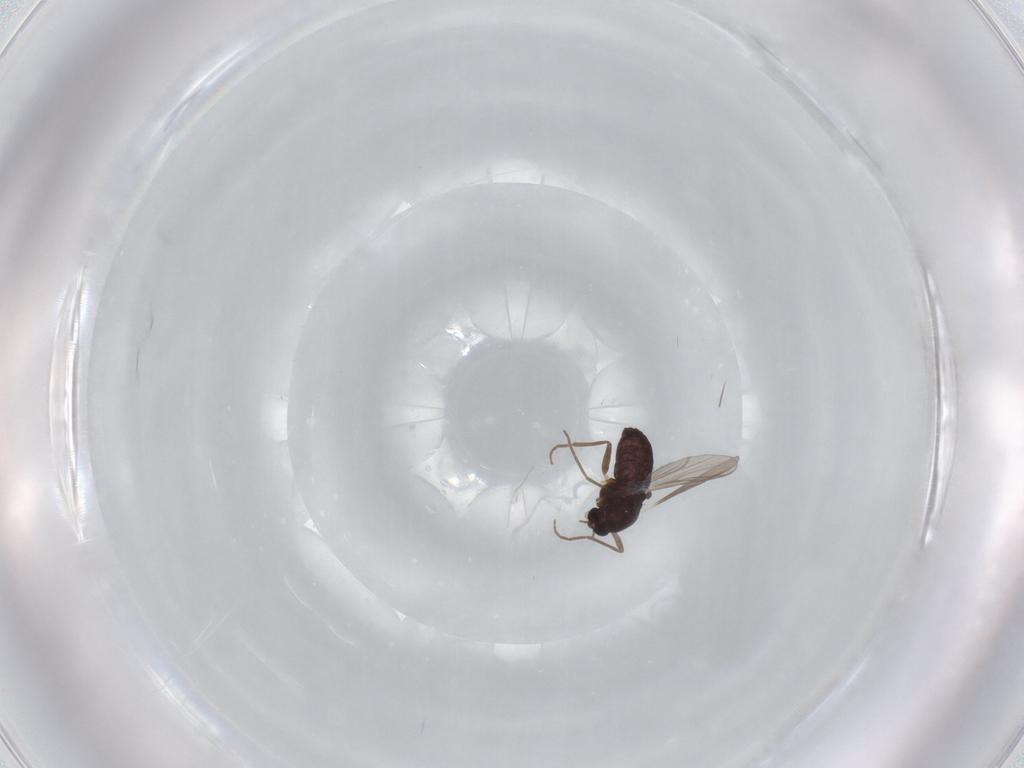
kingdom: Animalia
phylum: Arthropoda
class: Insecta
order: Diptera
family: Chironomidae
